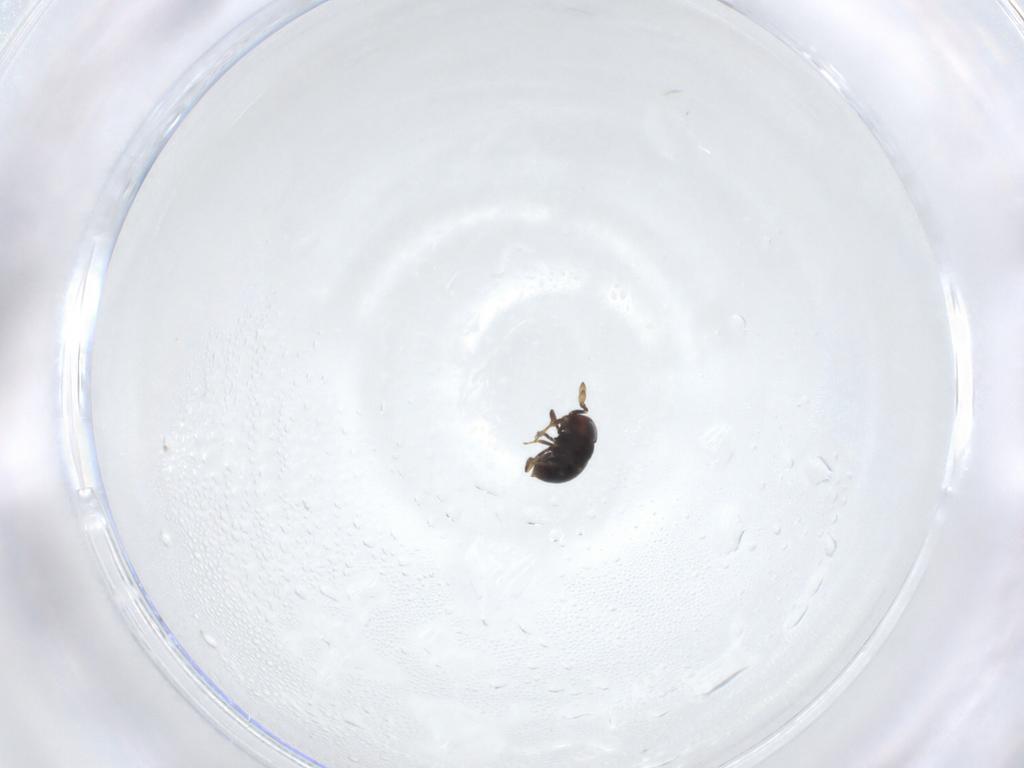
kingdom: Animalia
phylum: Arthropoda
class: Insecta
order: Hymenoptera
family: Scelionidae
